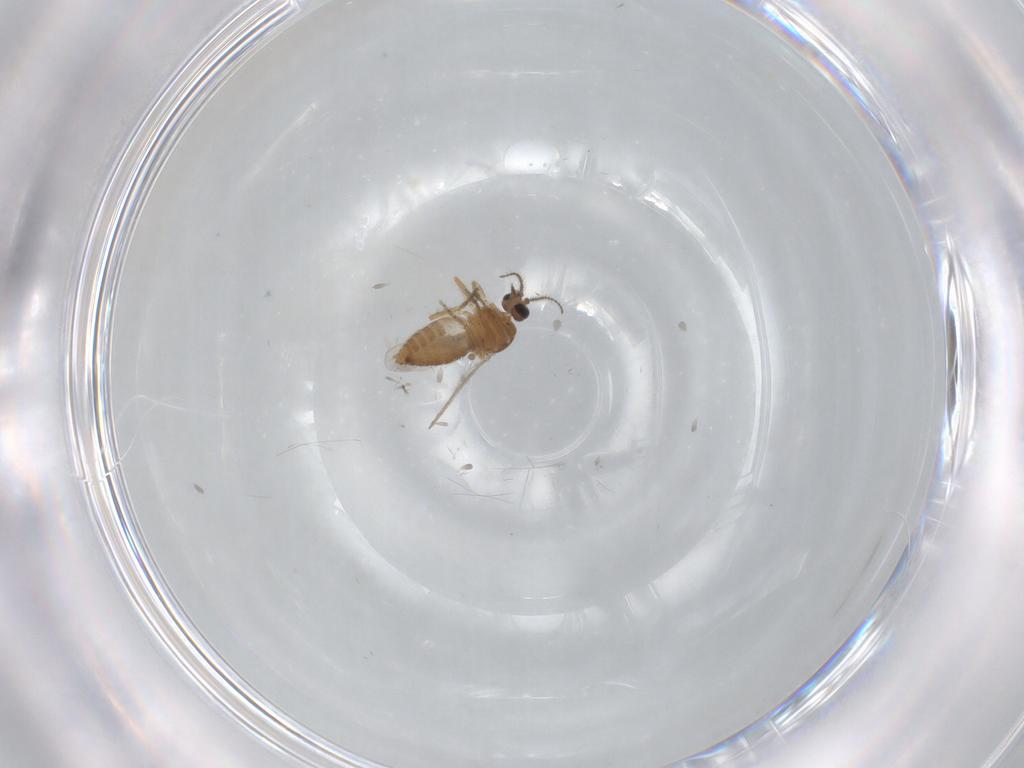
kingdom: Animalia
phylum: Arthropoda
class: Insecta
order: Diptera
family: Ceratopogonidae
